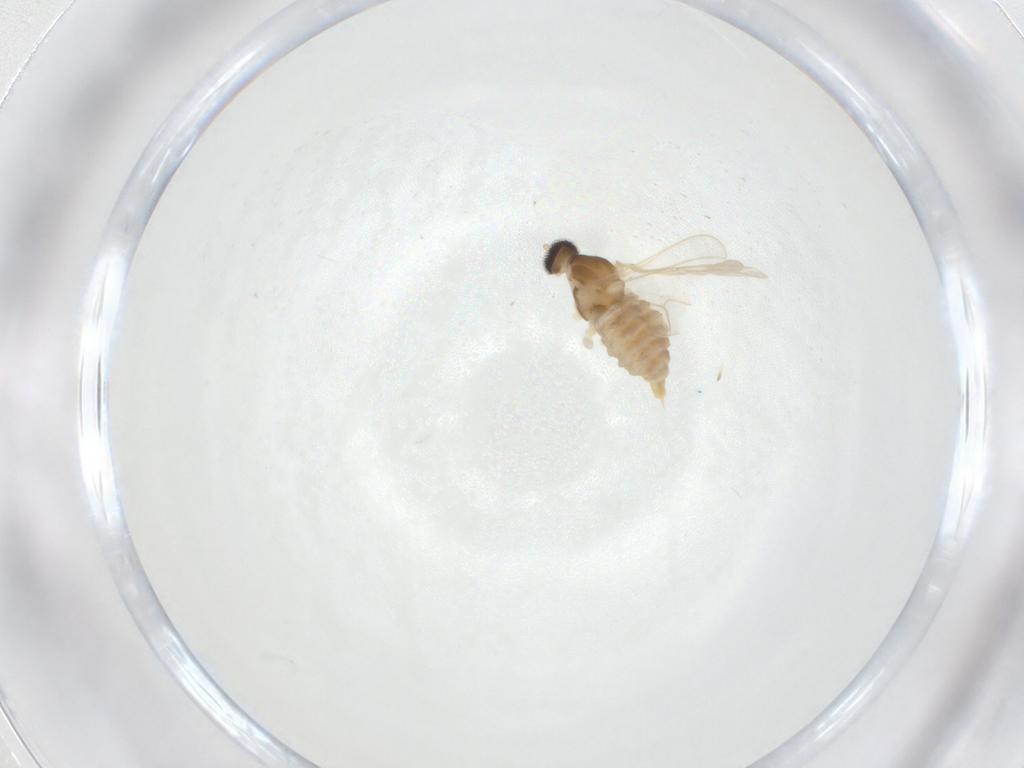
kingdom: Animalia
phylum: Arthropoda
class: Insecta
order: Diptera
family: Cecidomyiidae
